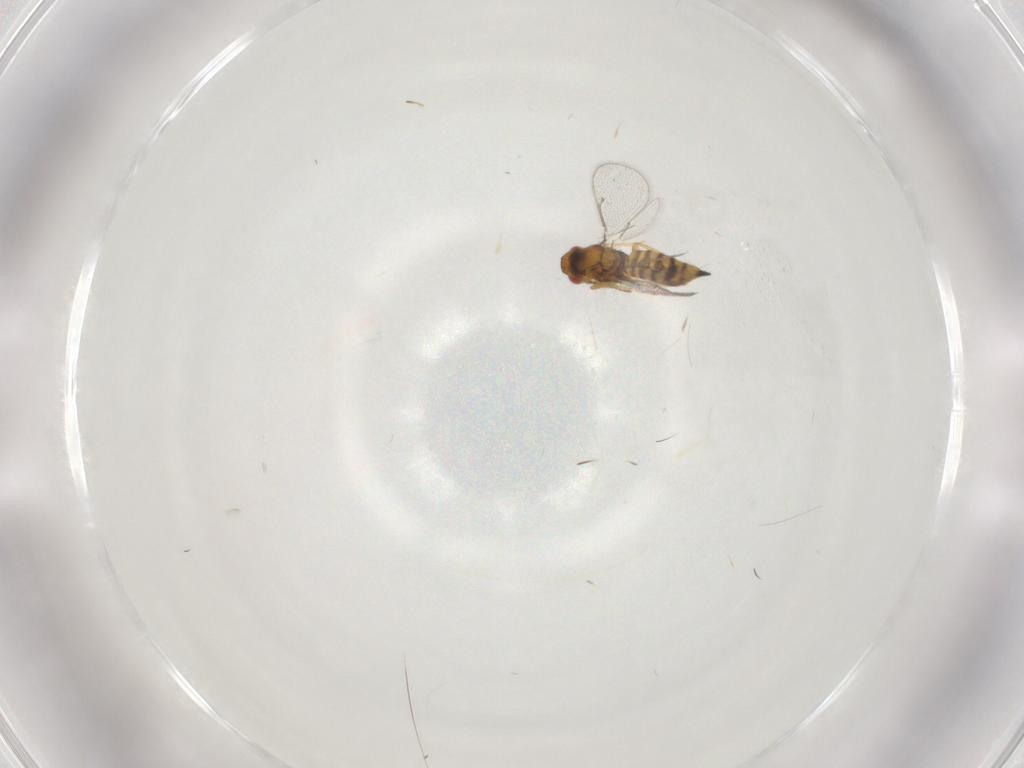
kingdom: Animalia
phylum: Arthropoda
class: Insecta
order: Hymenoptera
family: Eulophidae
